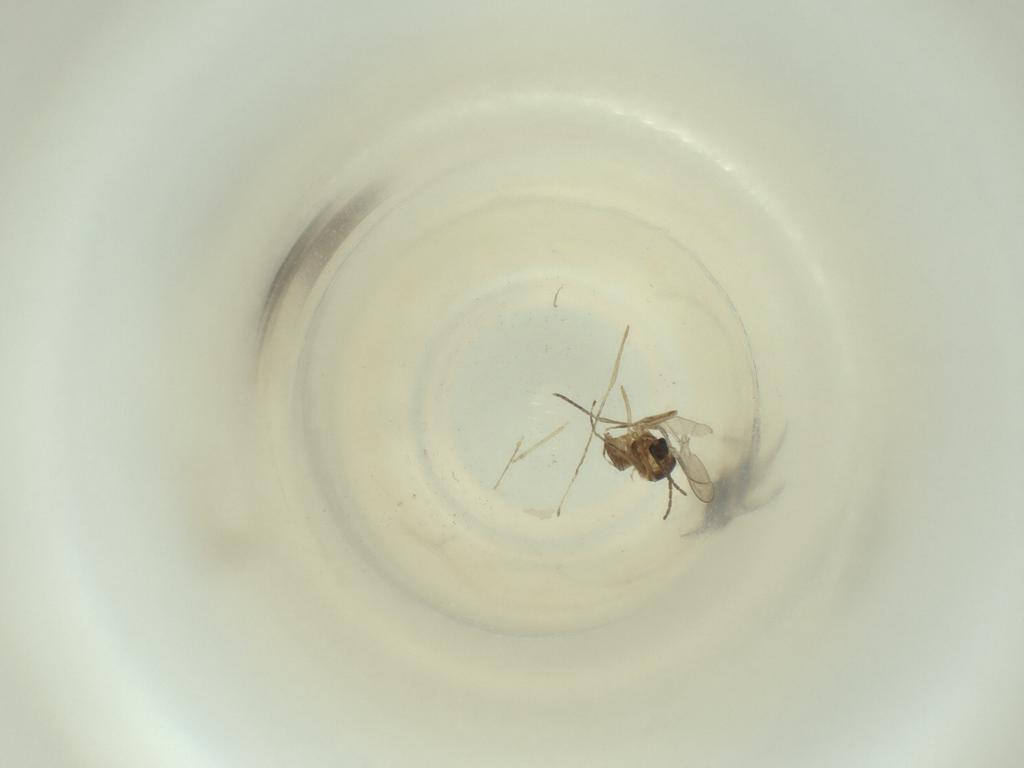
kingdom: Animalia
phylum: Arthropoda
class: Insecta
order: Diptera
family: Cecidomyiidae
